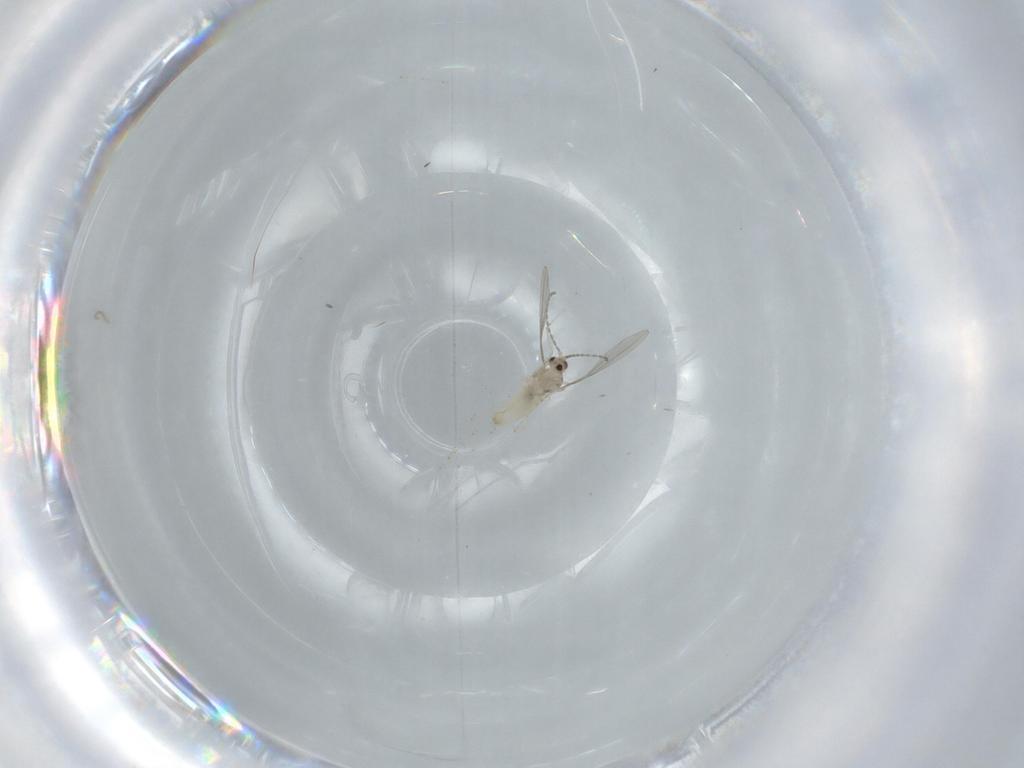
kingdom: Animalia
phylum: Arthropoda
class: Insecta
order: Diptera
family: Cecidomyiidae
